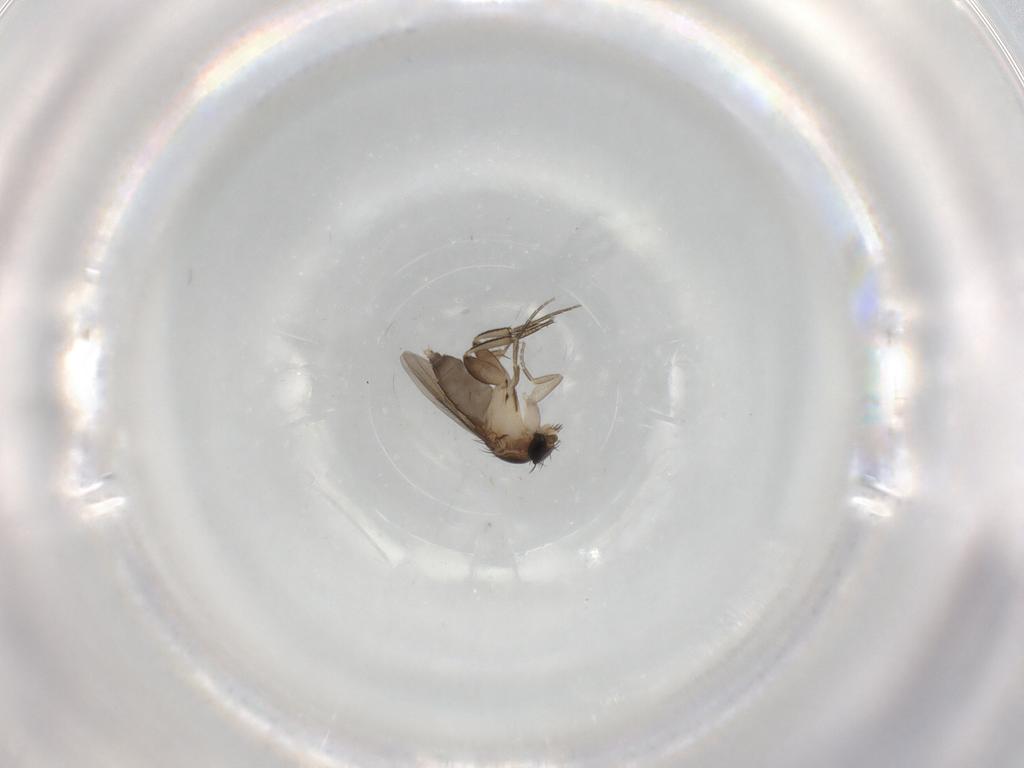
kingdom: Animalia
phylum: Arthropoda
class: Insecta
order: Diptera
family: Phoridae
